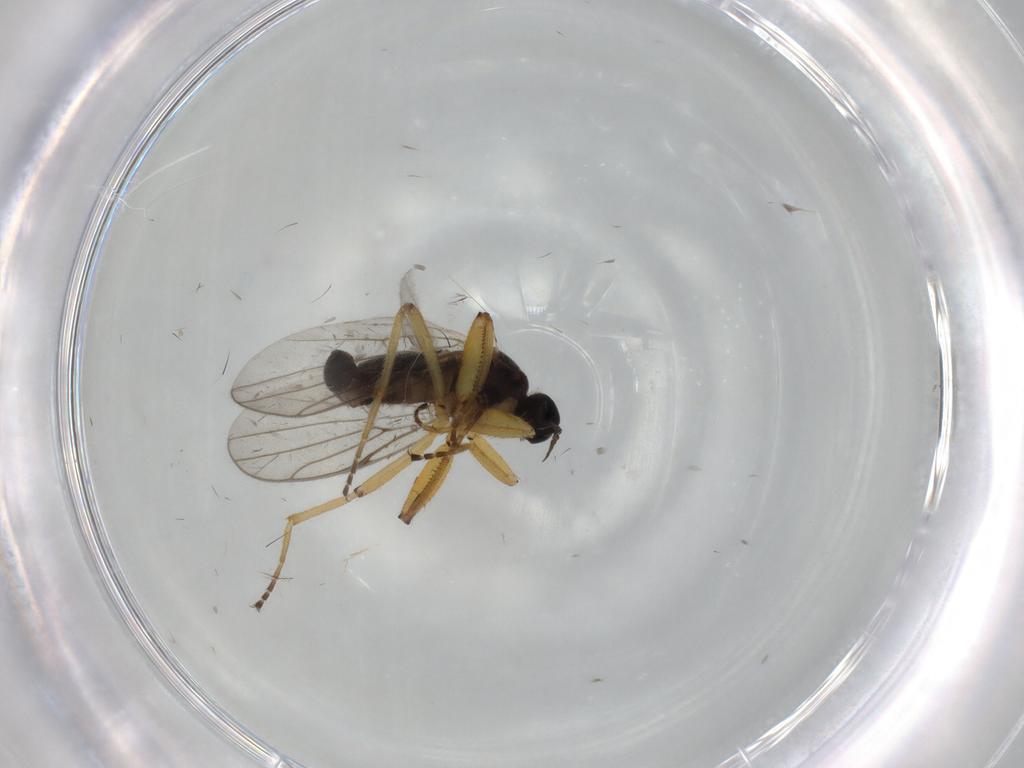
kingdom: Animalia
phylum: Arthropoda
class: Insecta
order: Diptera
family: Hybotidae
